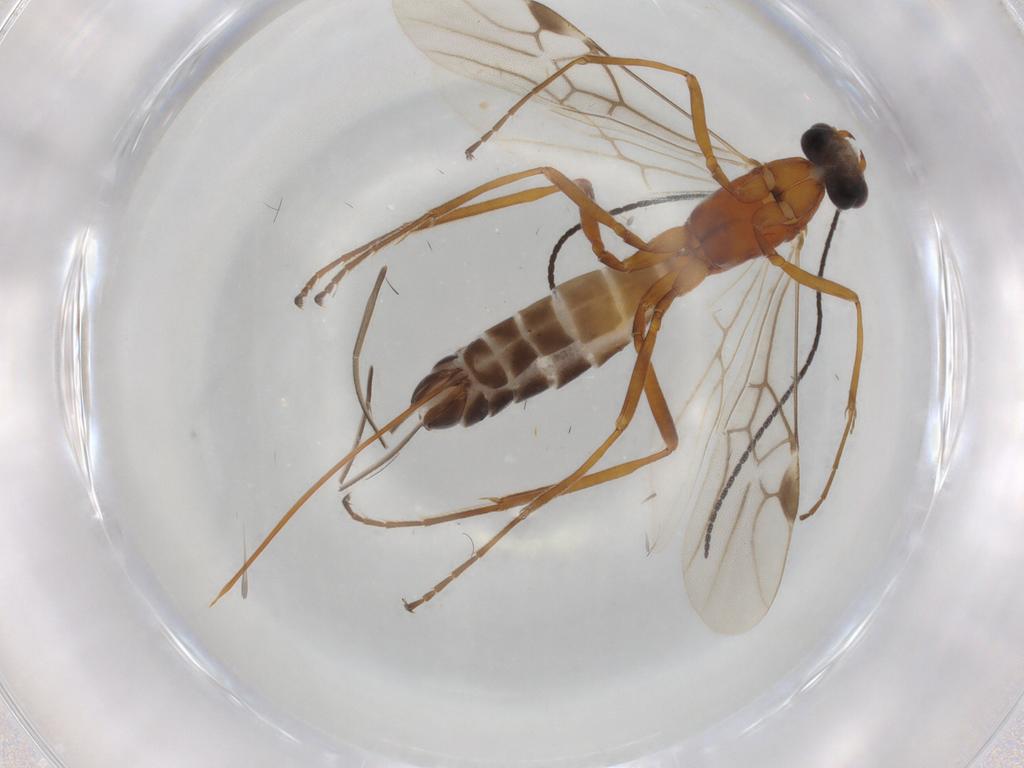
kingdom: Animalia
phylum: Arthropoda
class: Insecta
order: Hymenoptera
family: Braconidae
